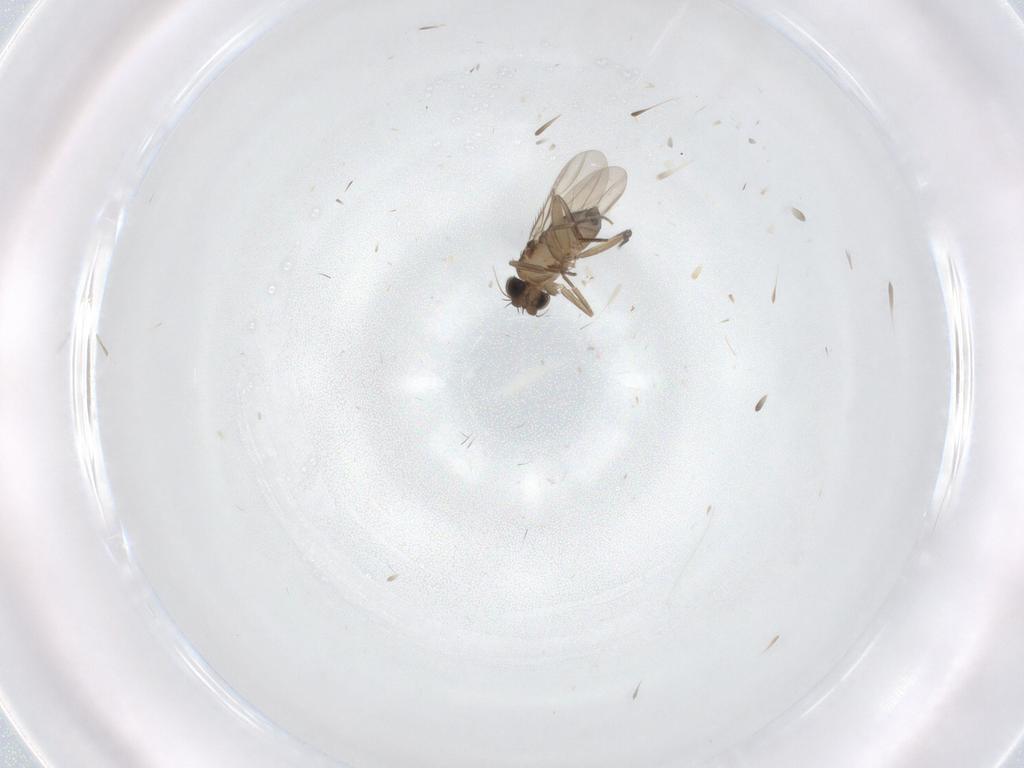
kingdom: Animalia
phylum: Arthropoda
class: Insecta
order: Diptera
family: Phoridae
